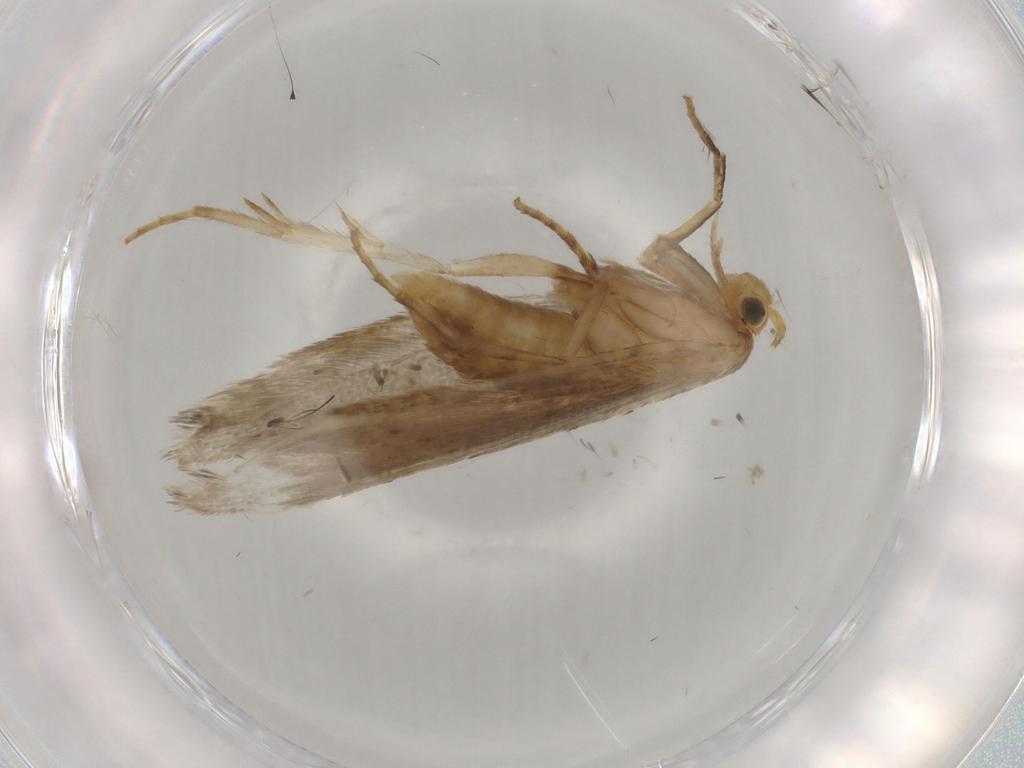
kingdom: Animalia
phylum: Arthropoda
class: Insecta
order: Lepidoptera
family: Argyresthiidae
